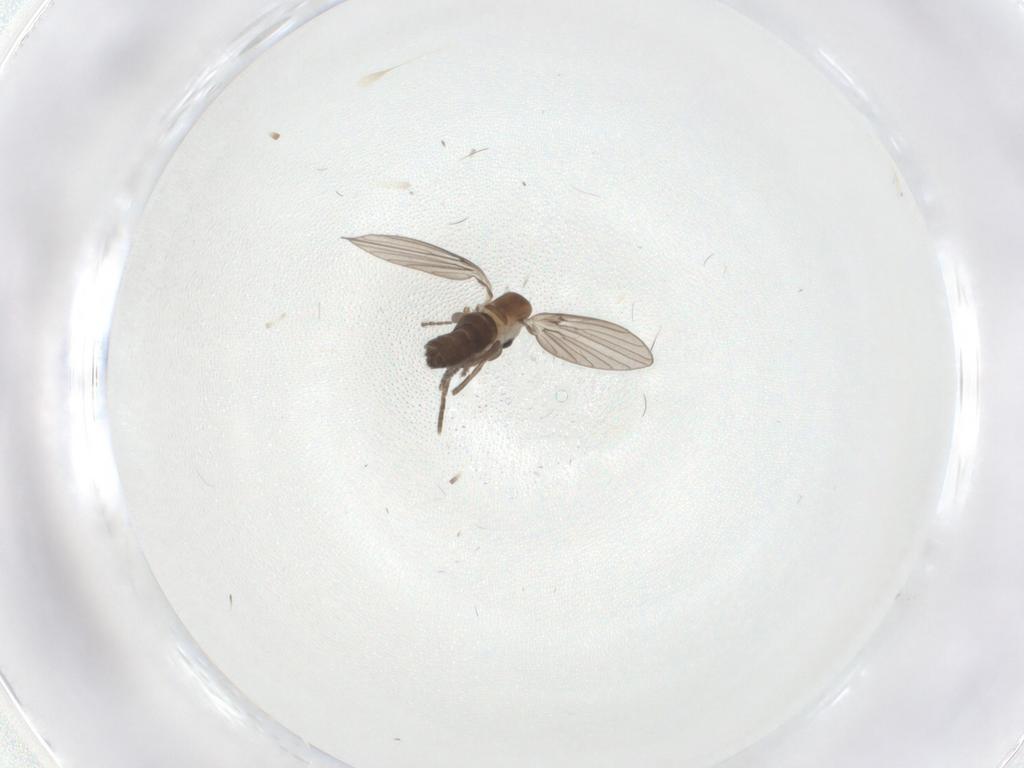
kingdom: Animalia
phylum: Arthropoda
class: Insecta
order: Diptera
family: Psychodidae
